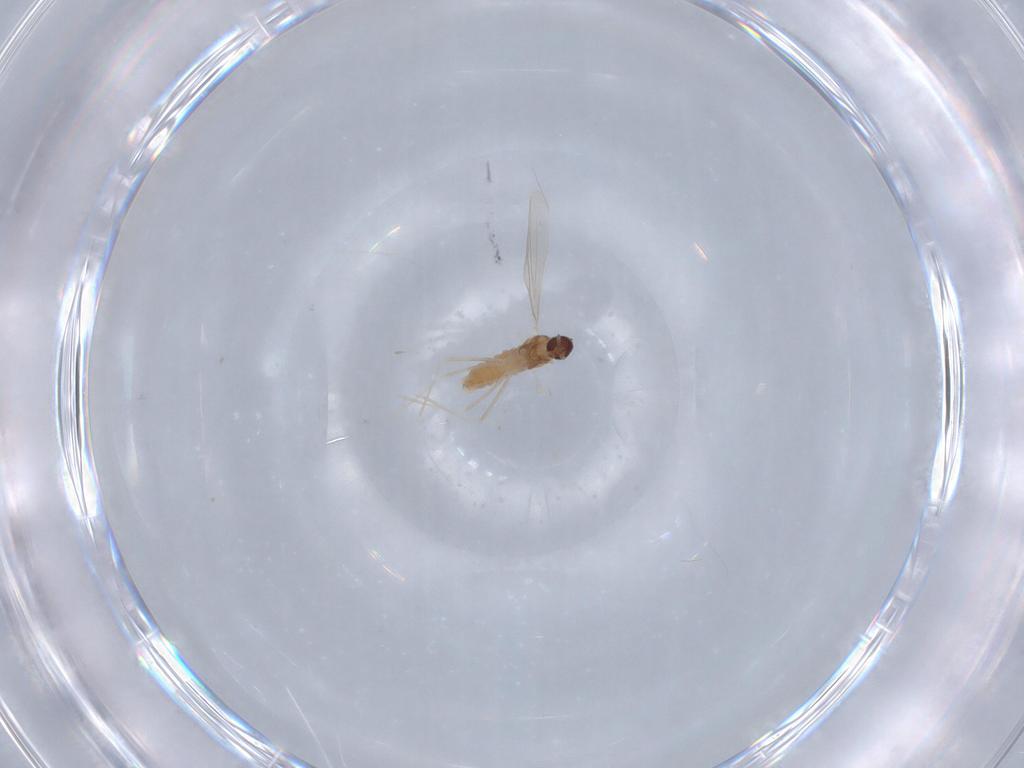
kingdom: Animalia
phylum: Arthropoda
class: Insecta
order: Diptera
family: Cecidomyiidae
